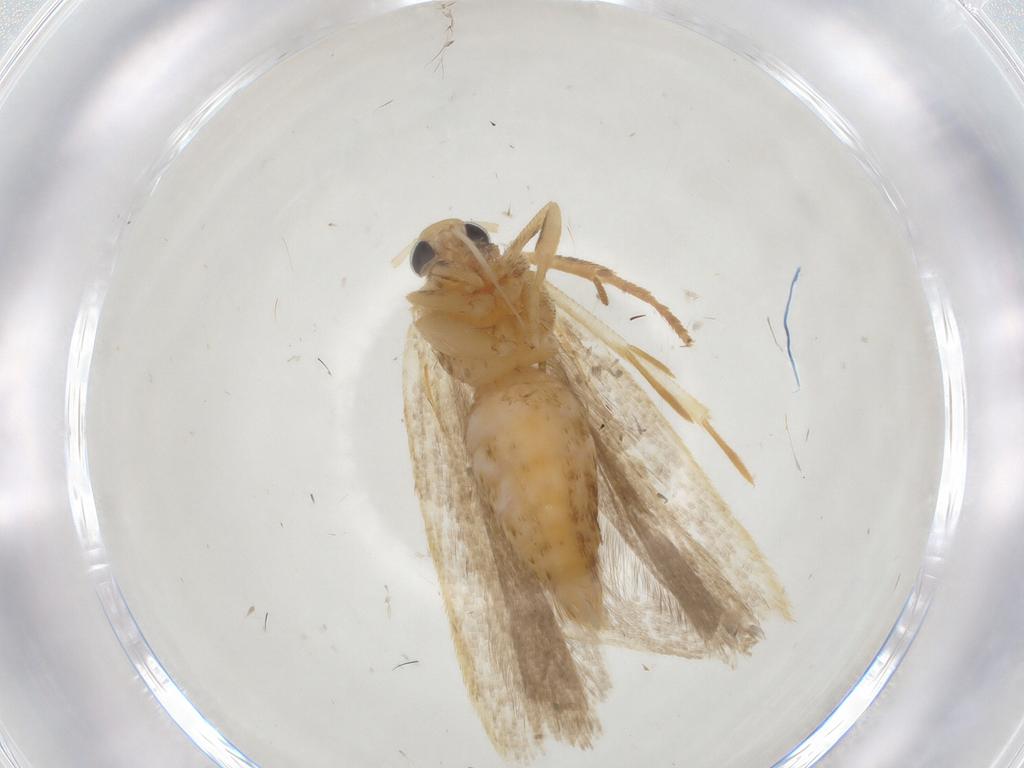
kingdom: Animalia
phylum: Arthropoda
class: Insecta
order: Lepidoptera
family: Gelechiidae
